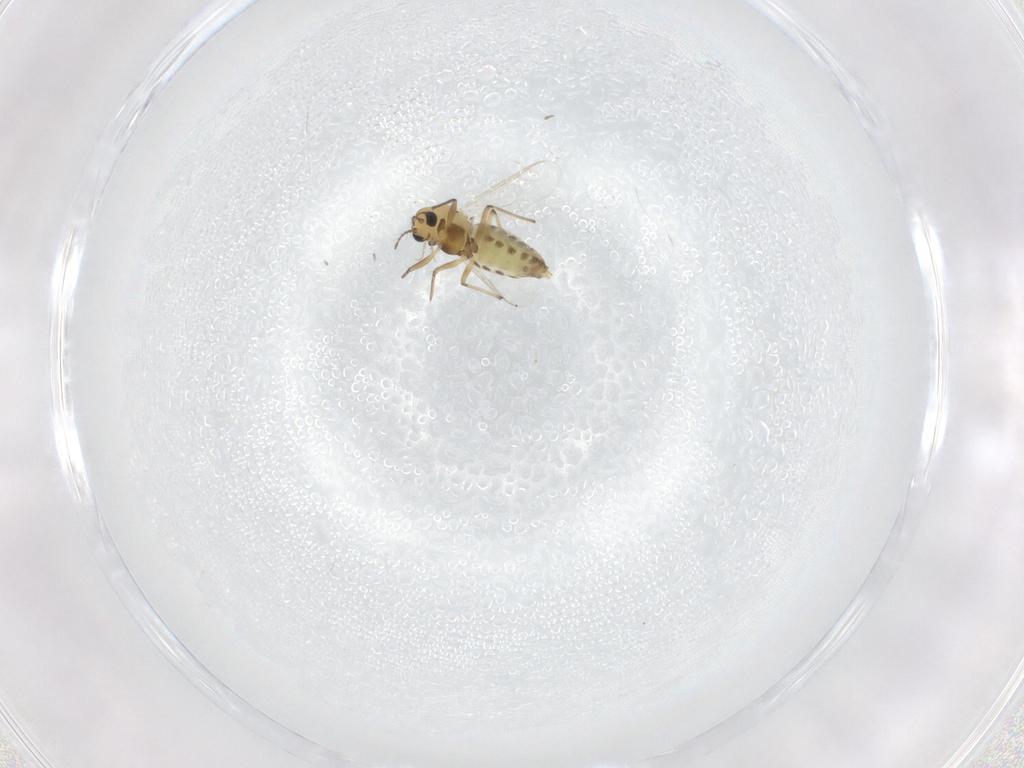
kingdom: Animalia
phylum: Arthropoda
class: Insecta
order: Diptera
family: Chironomidae
